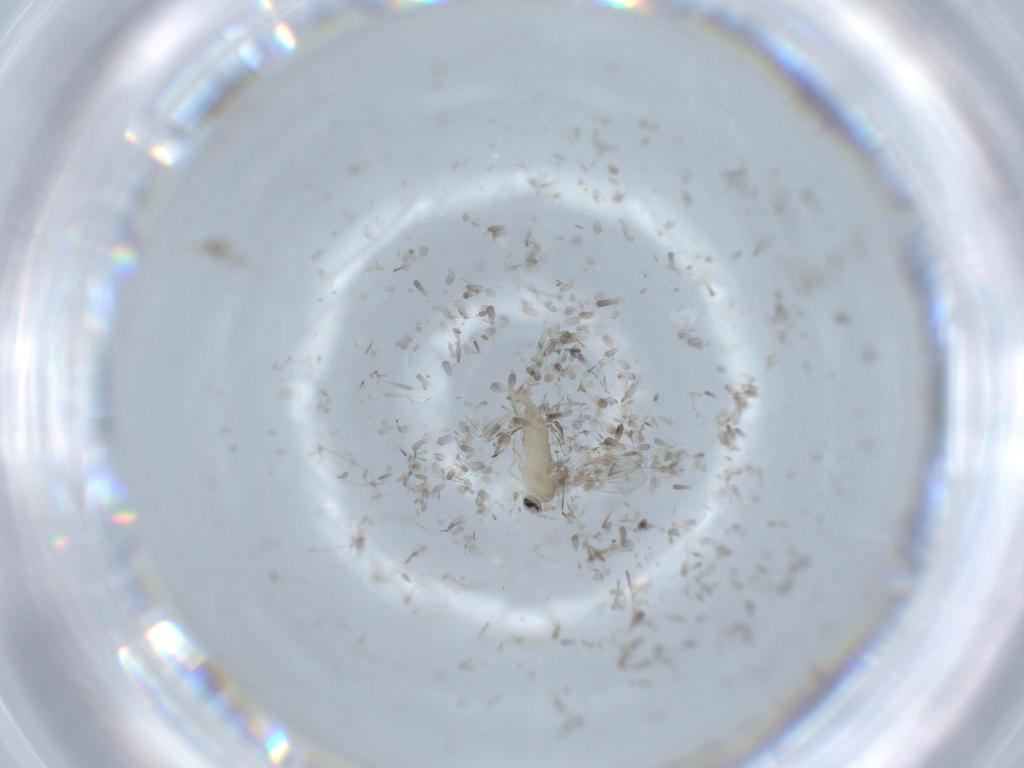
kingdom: Animalia
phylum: Arthropoda
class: Insecta
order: Diptera
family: Cecidomyiidae
